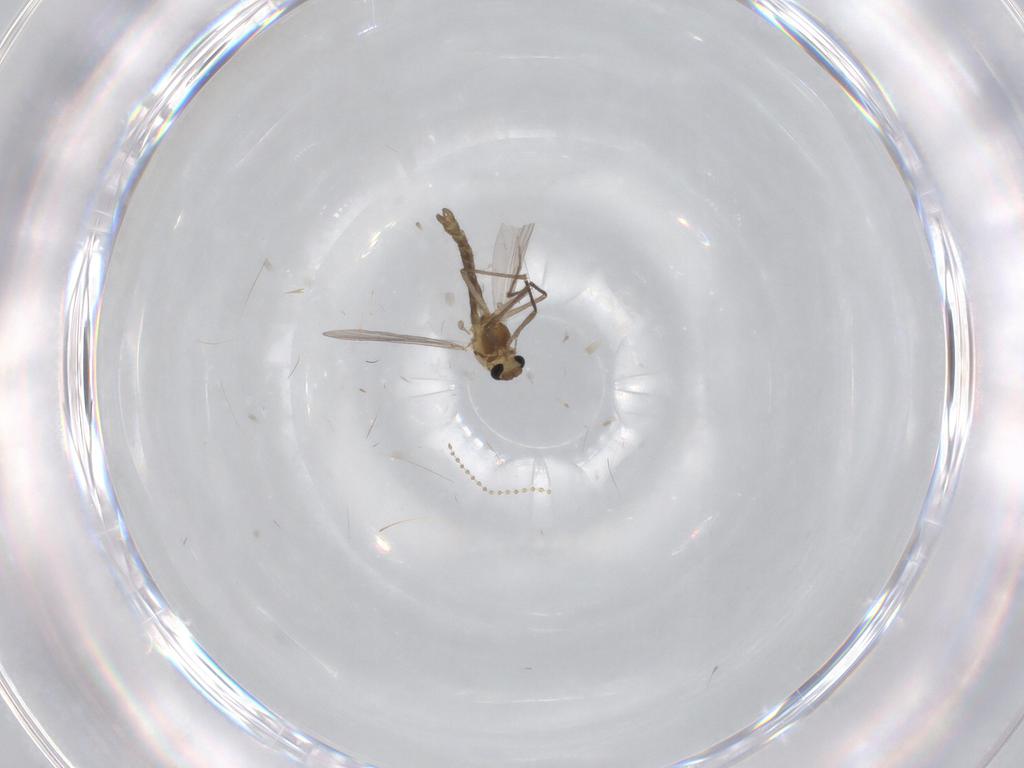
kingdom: Animalia
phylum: Arthropoda
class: Insecta
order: Diptera
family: Chironomidae
